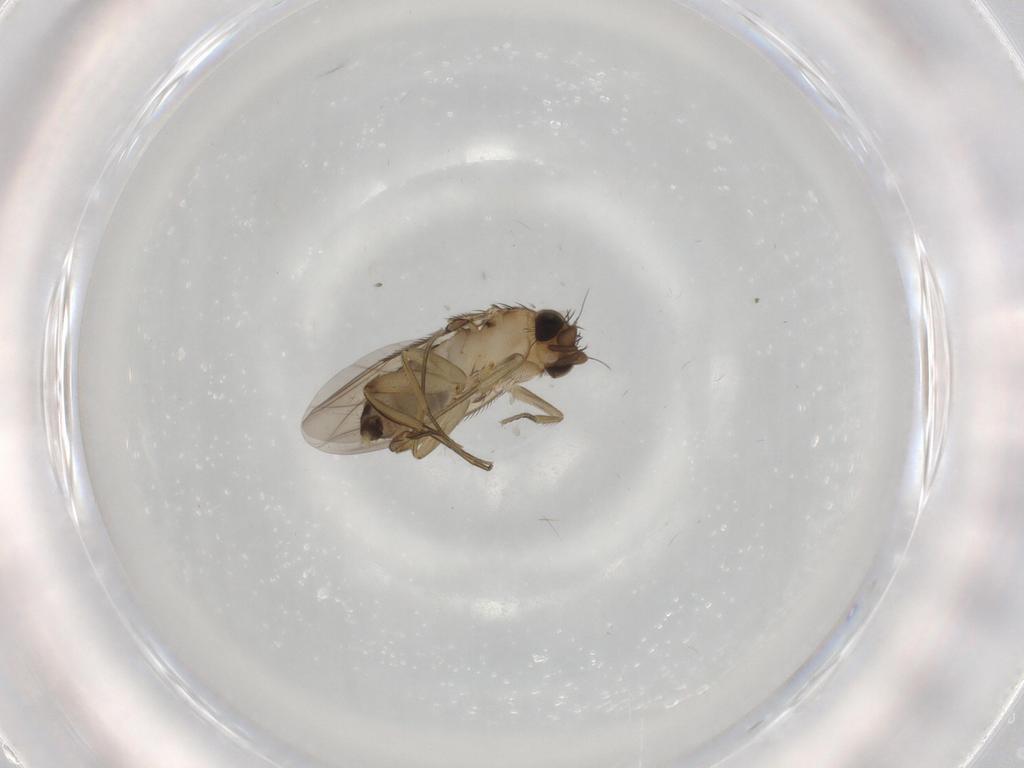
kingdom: Animalia
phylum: Arthropoda
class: Insecta
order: Diptera
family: Phoridae
